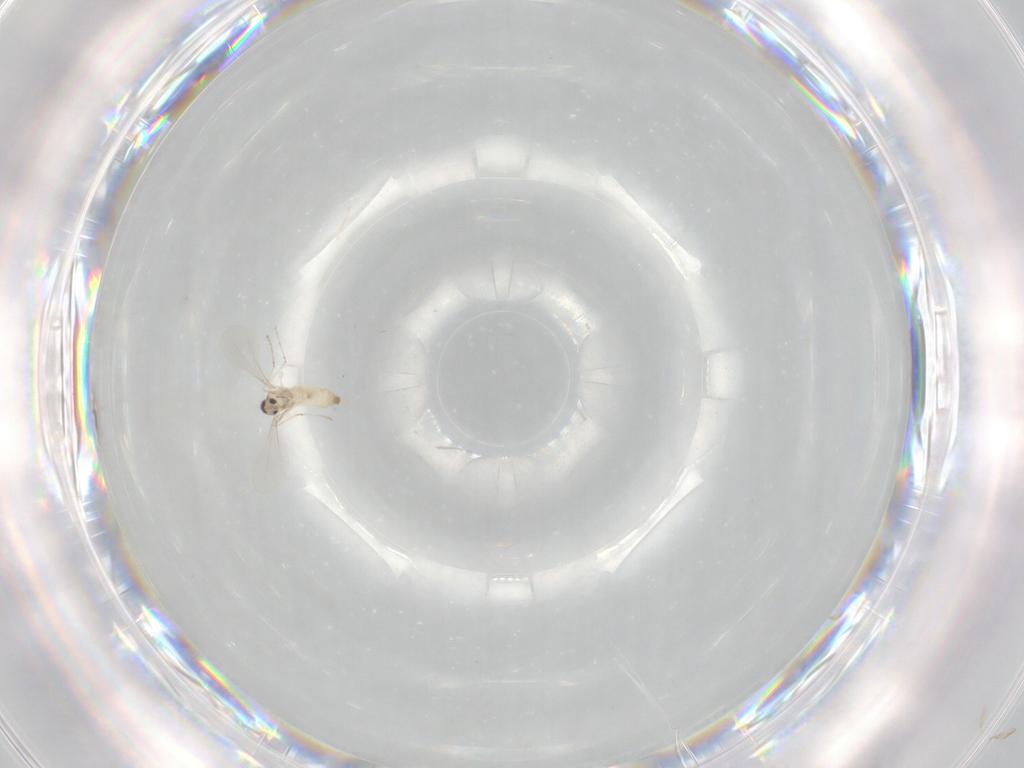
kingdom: Animalia
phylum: Arthropoda
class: Insecta
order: Diptera
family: Cecidomyiidae
